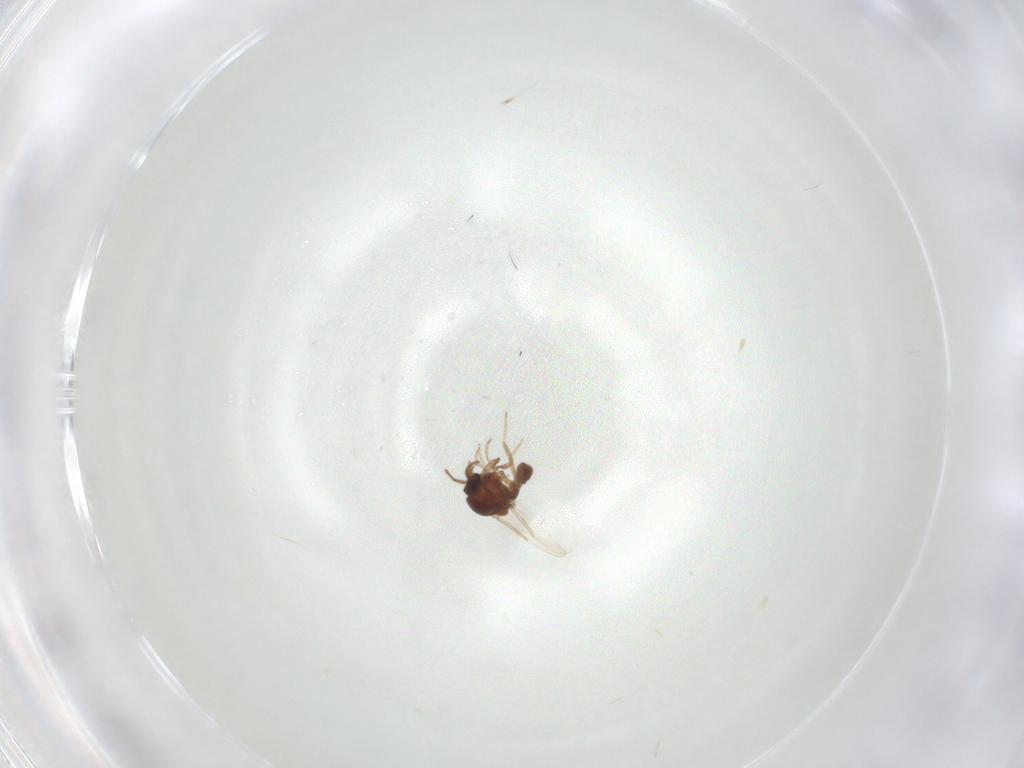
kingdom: Animalia
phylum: Arthropoda
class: Insecta
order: Diptera
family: Ceratopogonidae
